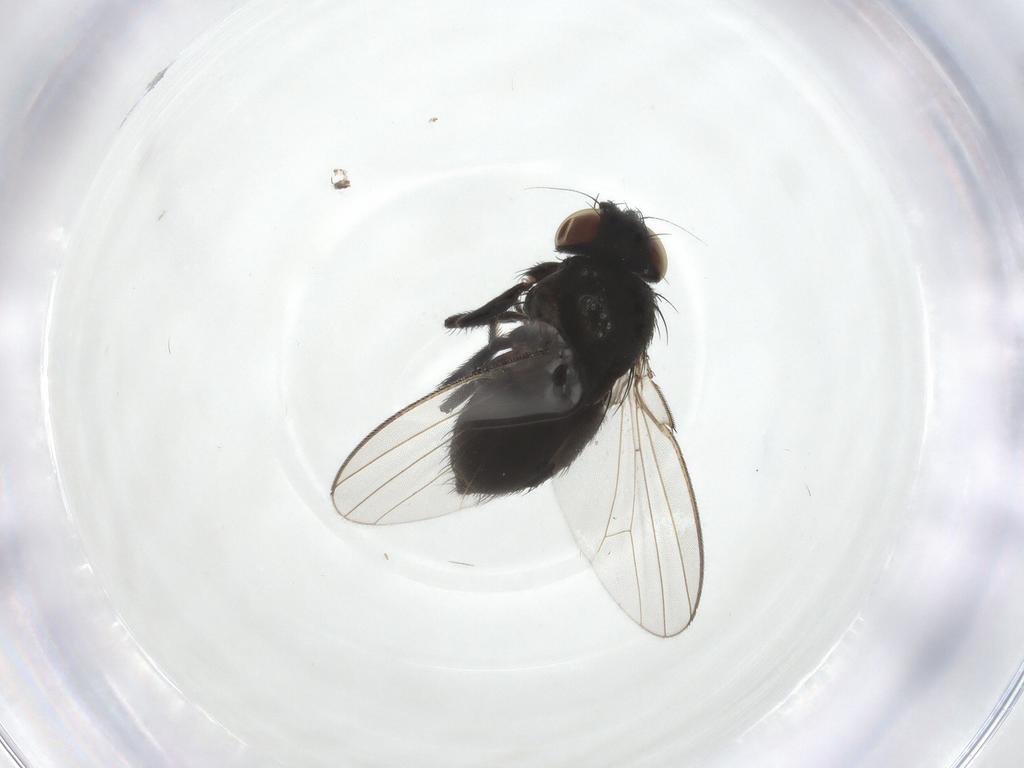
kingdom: Animalia
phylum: Arthropoda
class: Insecta
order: Diptera
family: Milichiidae
